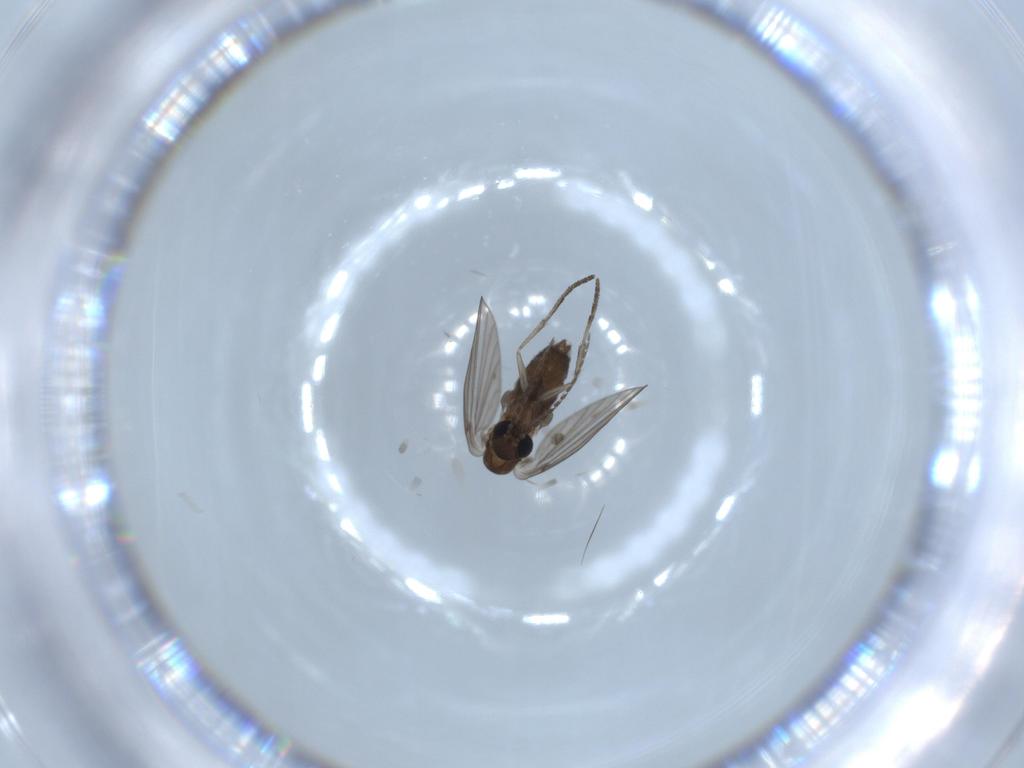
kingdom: Animalia
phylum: Arthropoda
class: Insecta
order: Diptera
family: Psychodidae
